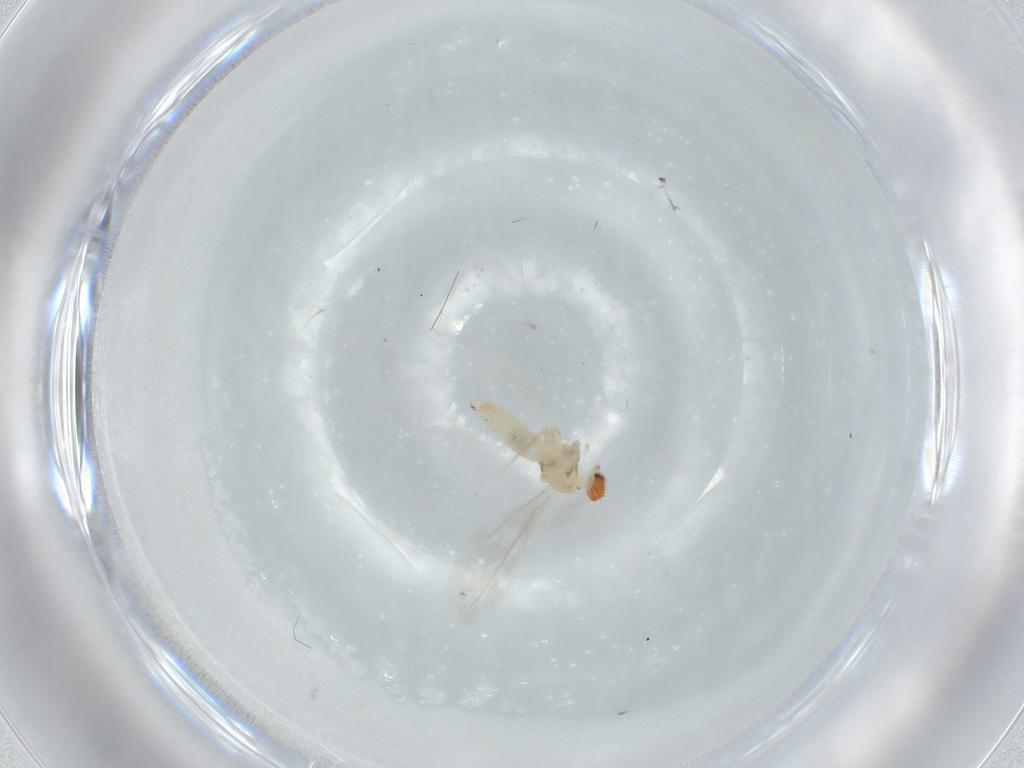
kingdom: Animalia
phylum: Arthropoda
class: Insecta
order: Diptera
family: Cecidomyiidae
